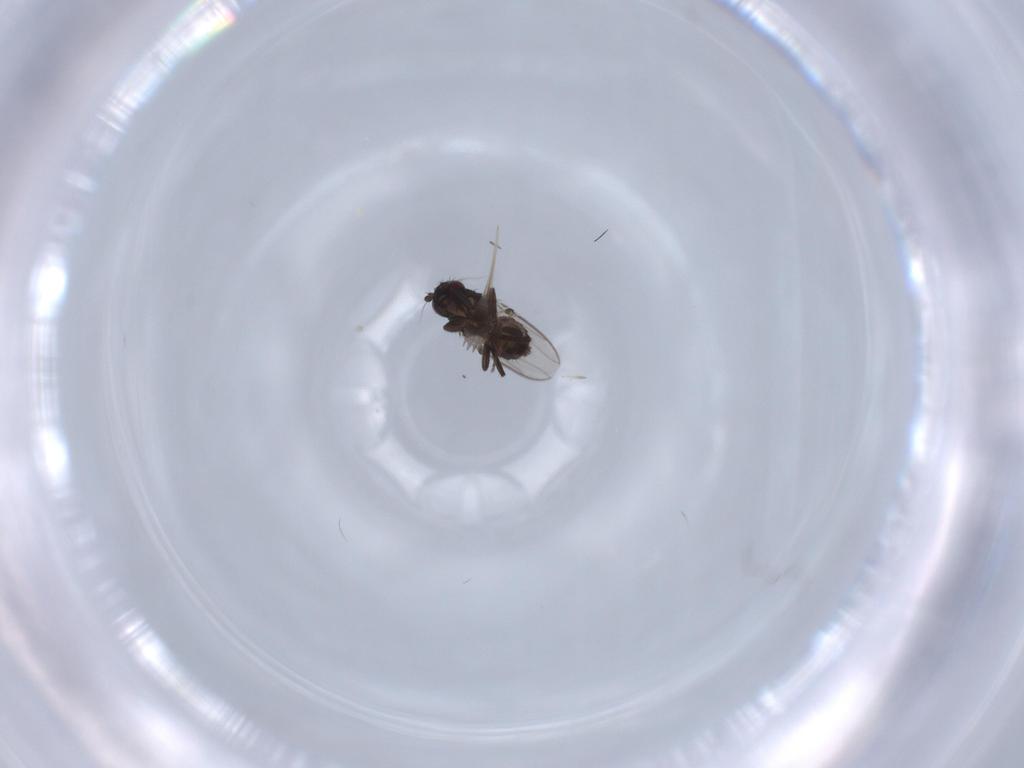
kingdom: Animalia
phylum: Arthropoda
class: Insecta
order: Diptera
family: Sphaeroceridae
